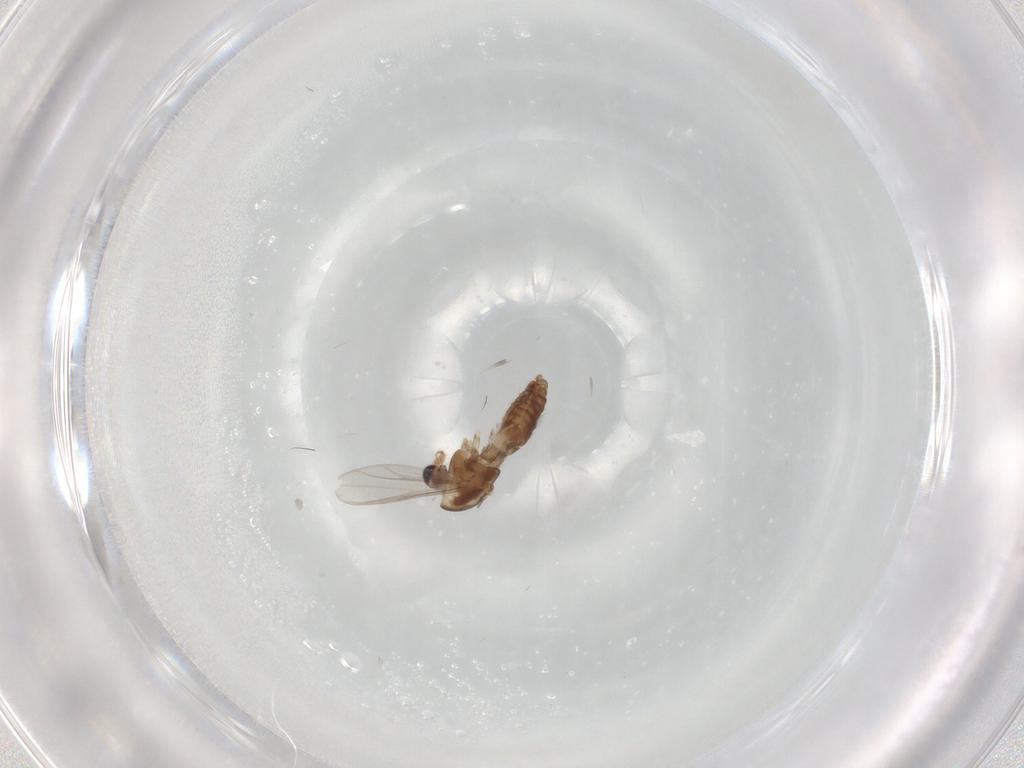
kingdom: Animalia
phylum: Arthropoda
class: Insecta
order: Diptera
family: Chironomidae
